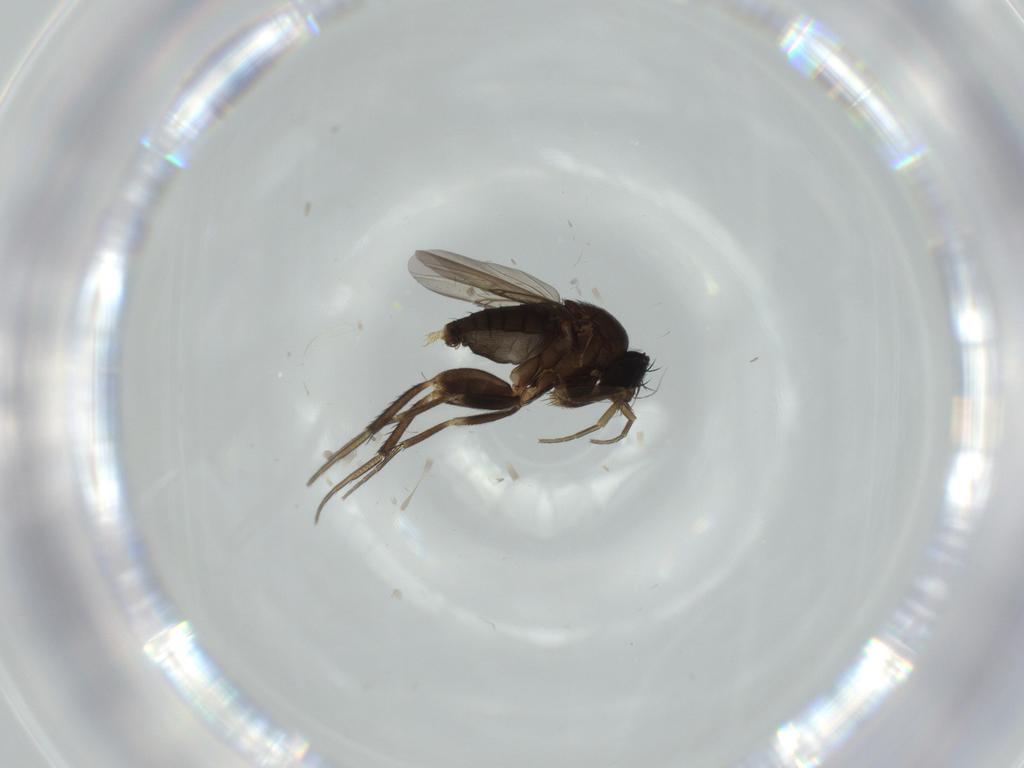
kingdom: Animalia
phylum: Arthropoda
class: Insecta
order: Diptera
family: Phoridae
